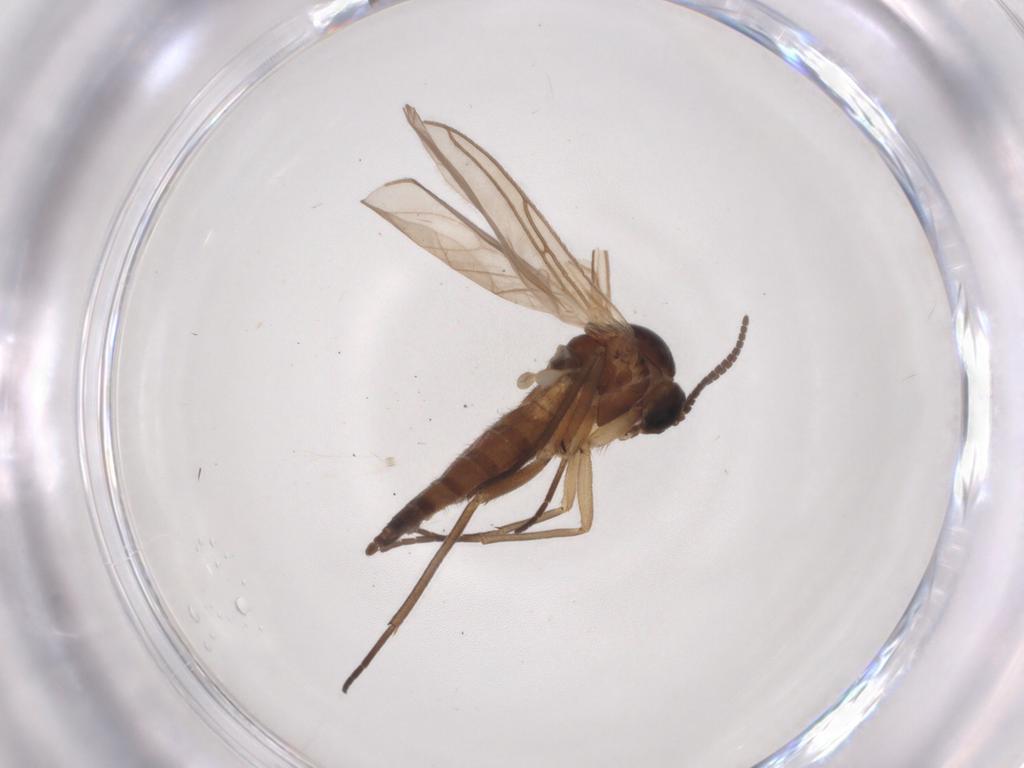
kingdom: Animalia
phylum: Arthropoda
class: Insecta
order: Diptera
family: Sciaridae
